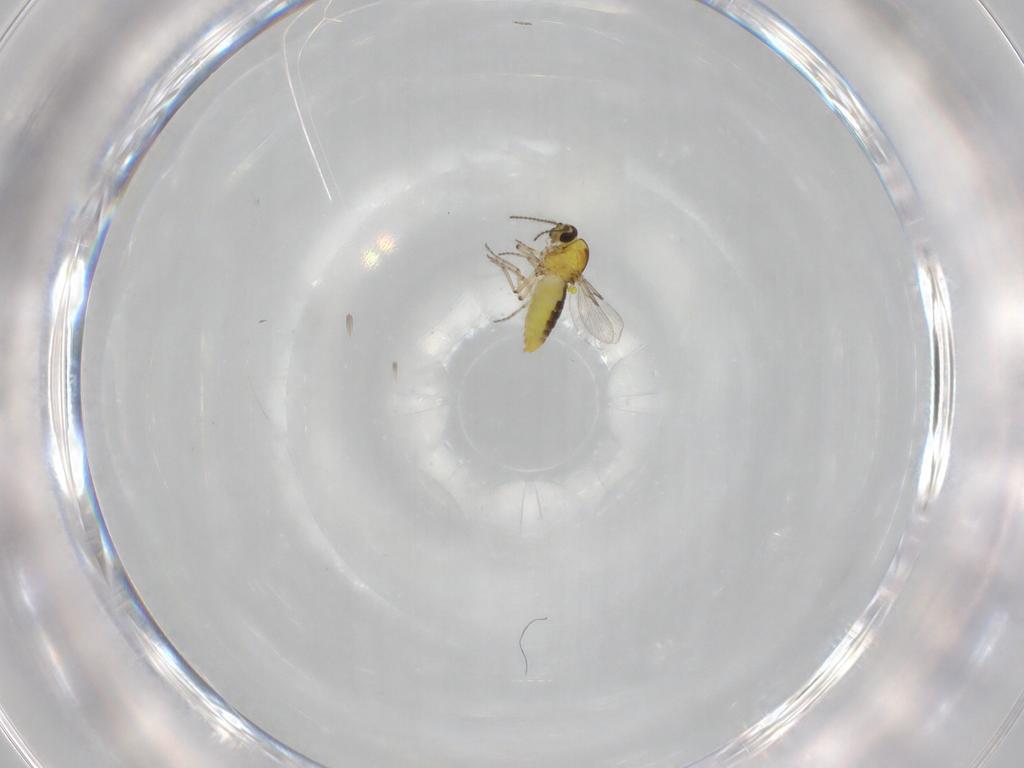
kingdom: Animalia
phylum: Arthropoda
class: Insecta
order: Diptera
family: Ceratopogonidae
